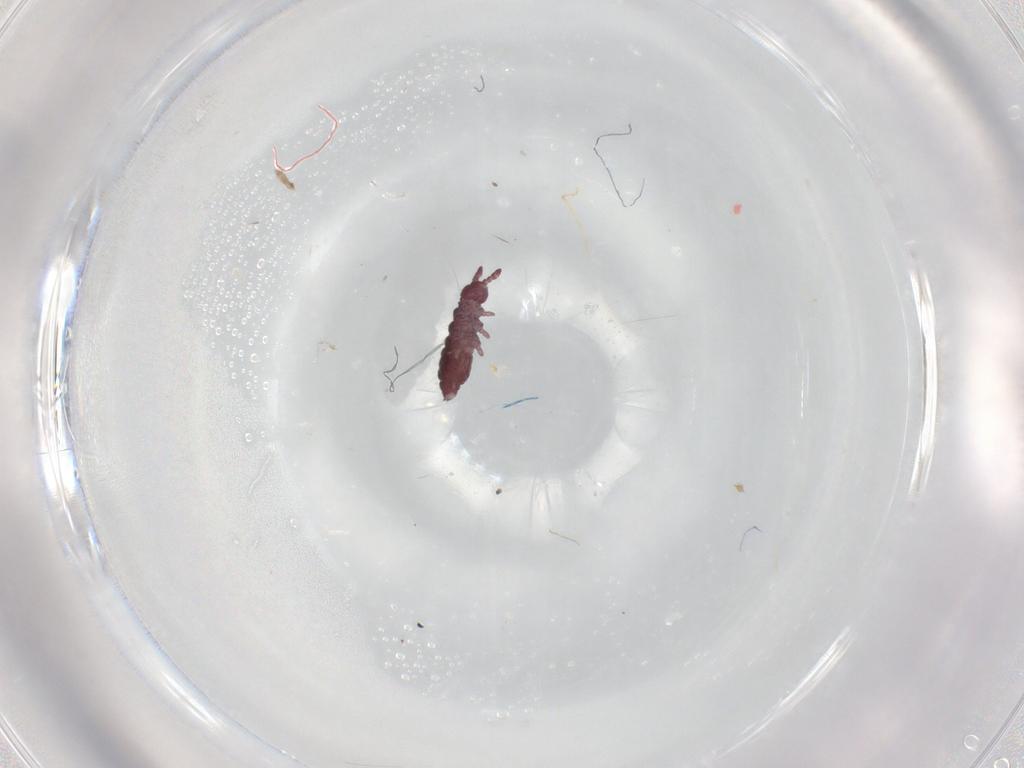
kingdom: Animalia
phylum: Arthropoda
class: Collembola
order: Poduromorpha
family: Hypogastruridae
